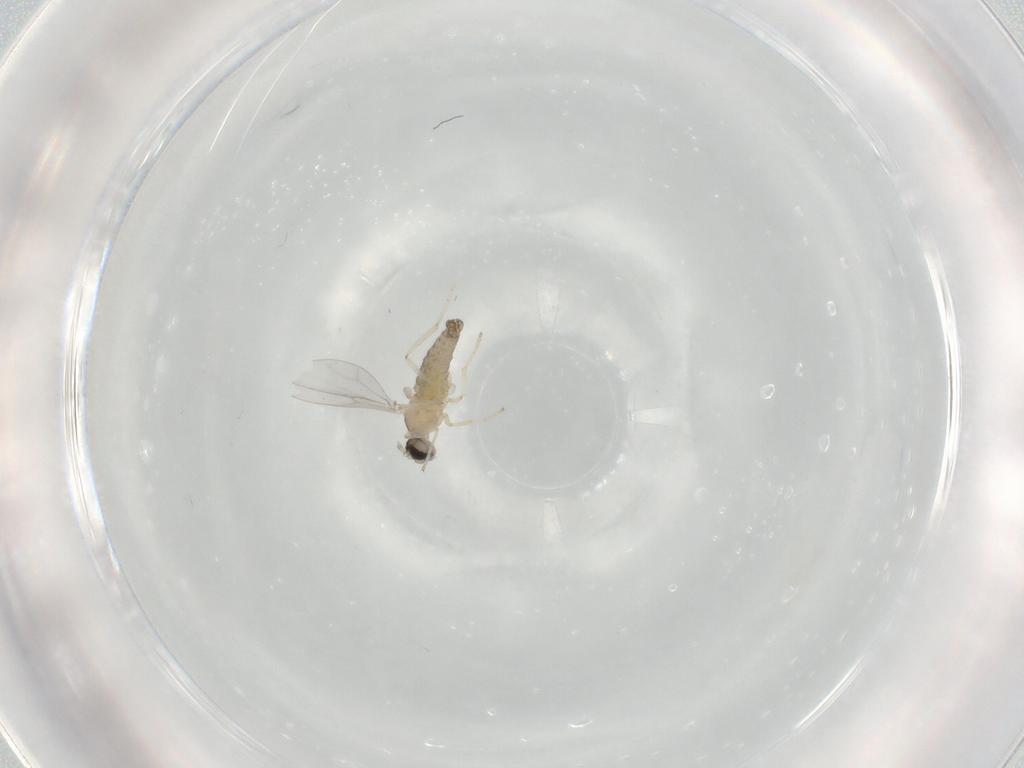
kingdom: Animalia
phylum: Arthropoda
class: Insecta
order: Diptera
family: Cecidomyiidae
